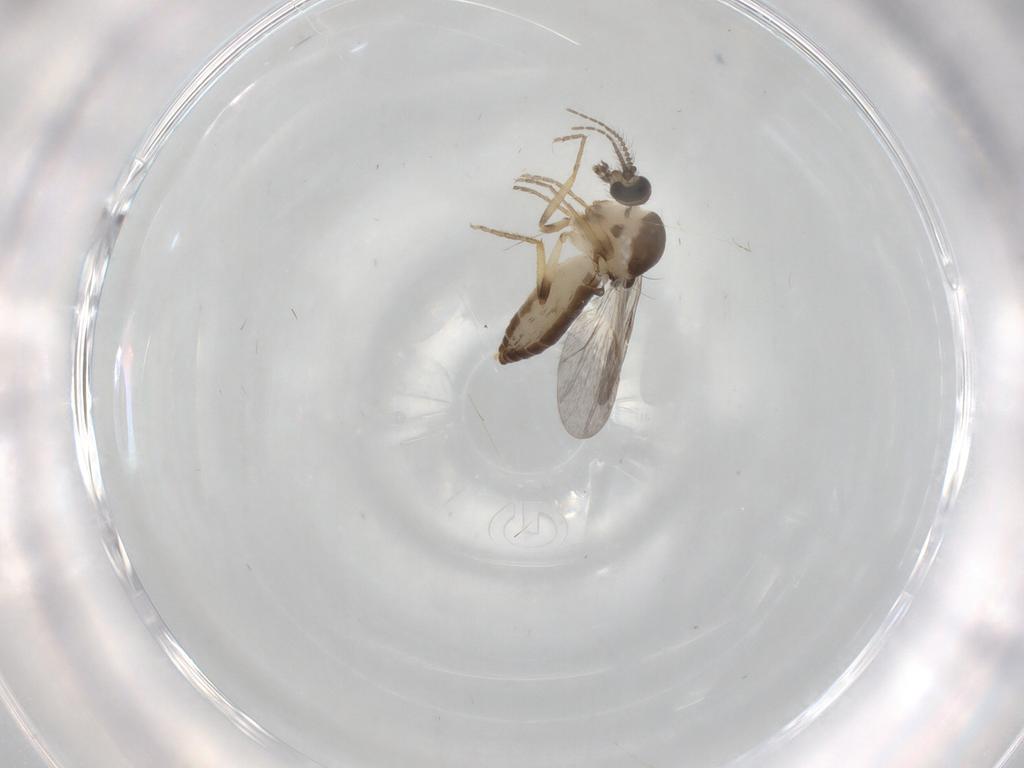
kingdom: Animalia
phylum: Arthropoda
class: Insecta
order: Diptera
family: Ceratopogonidae
